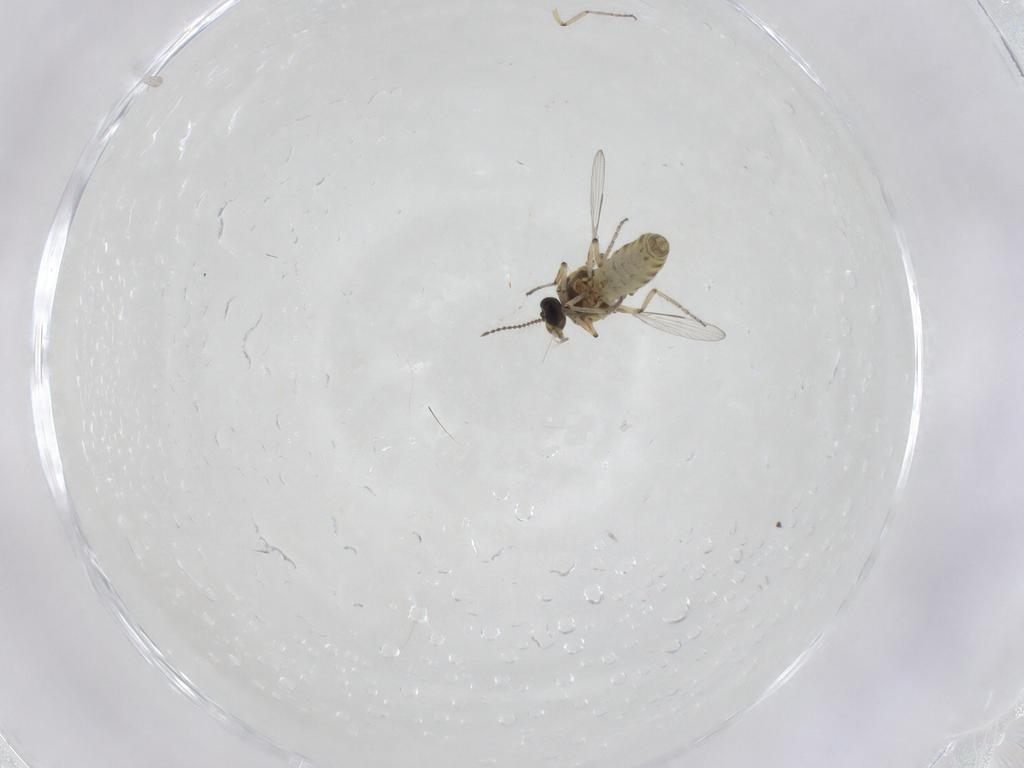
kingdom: Animalia
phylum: Arthropoda
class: Insecta
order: Diptera
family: Ceratopogonidae
